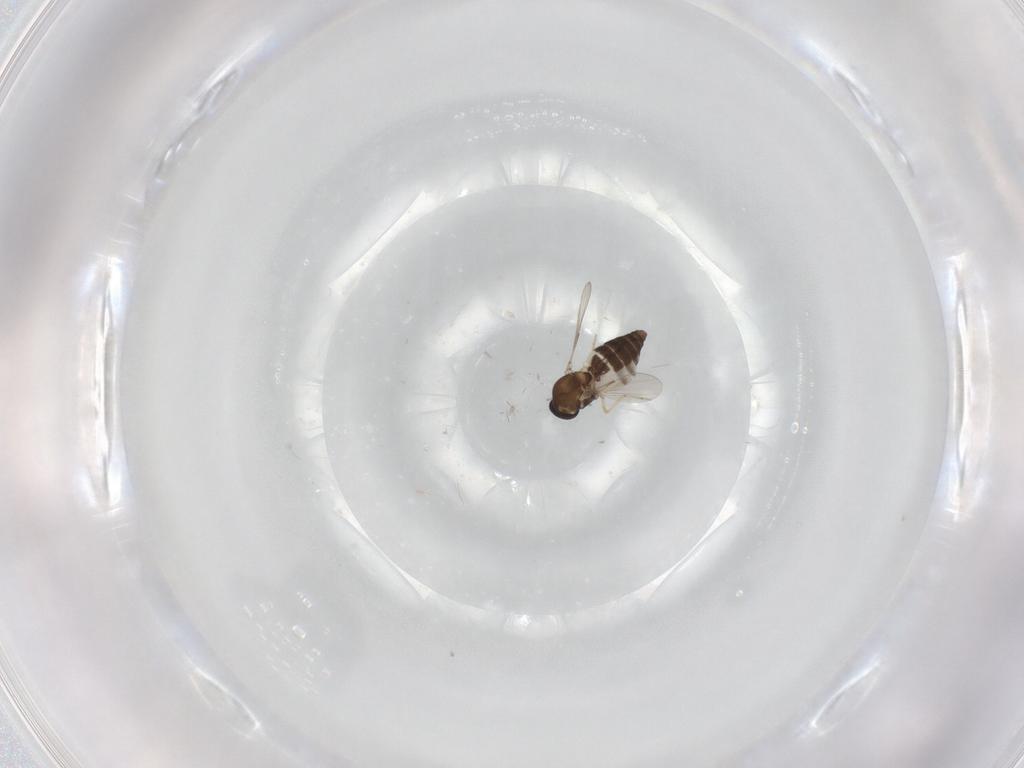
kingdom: Animalia
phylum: Arthropoda
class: Insecta
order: Diptera
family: Ceratopogonidae
